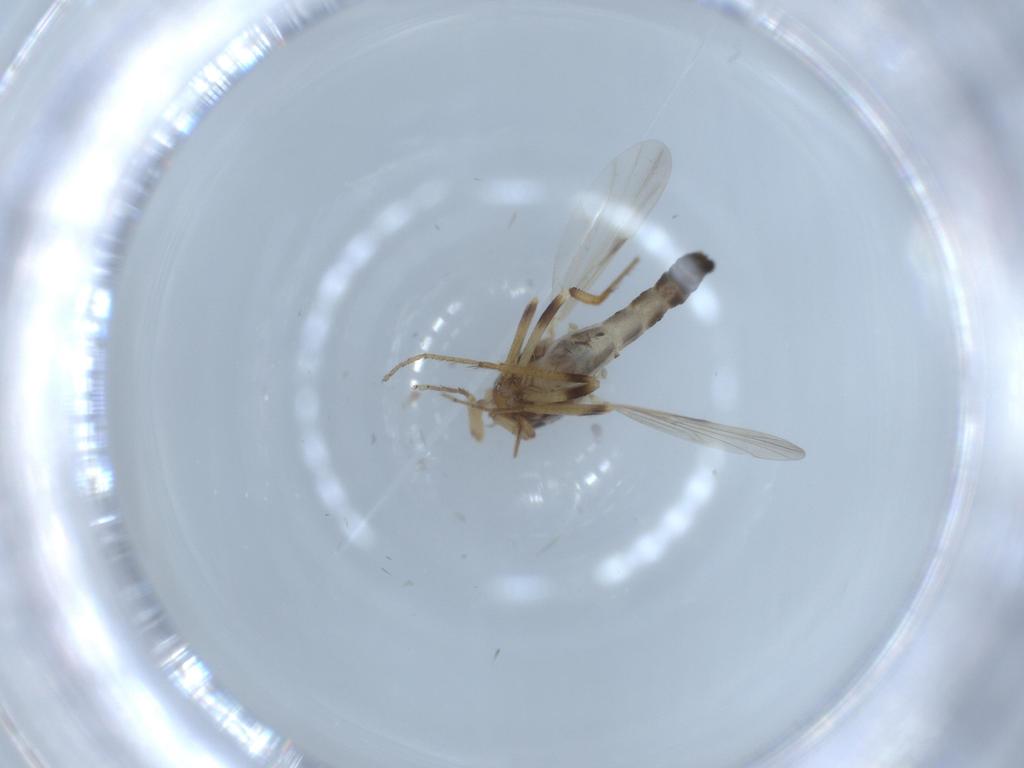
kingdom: Animalia
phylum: Arthropoda
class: Insecta
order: Diptera
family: Ceratopogonidae
